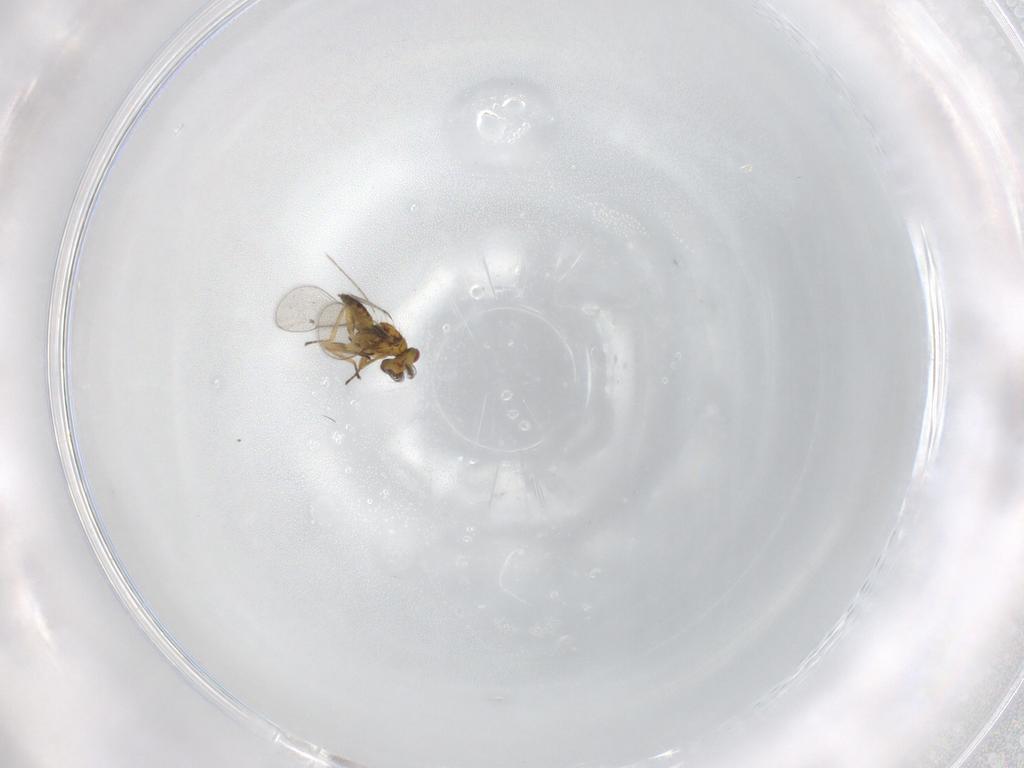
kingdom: Animalia
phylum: Arthropoda
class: Insecta
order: Hymenoptera
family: Eulophidae
